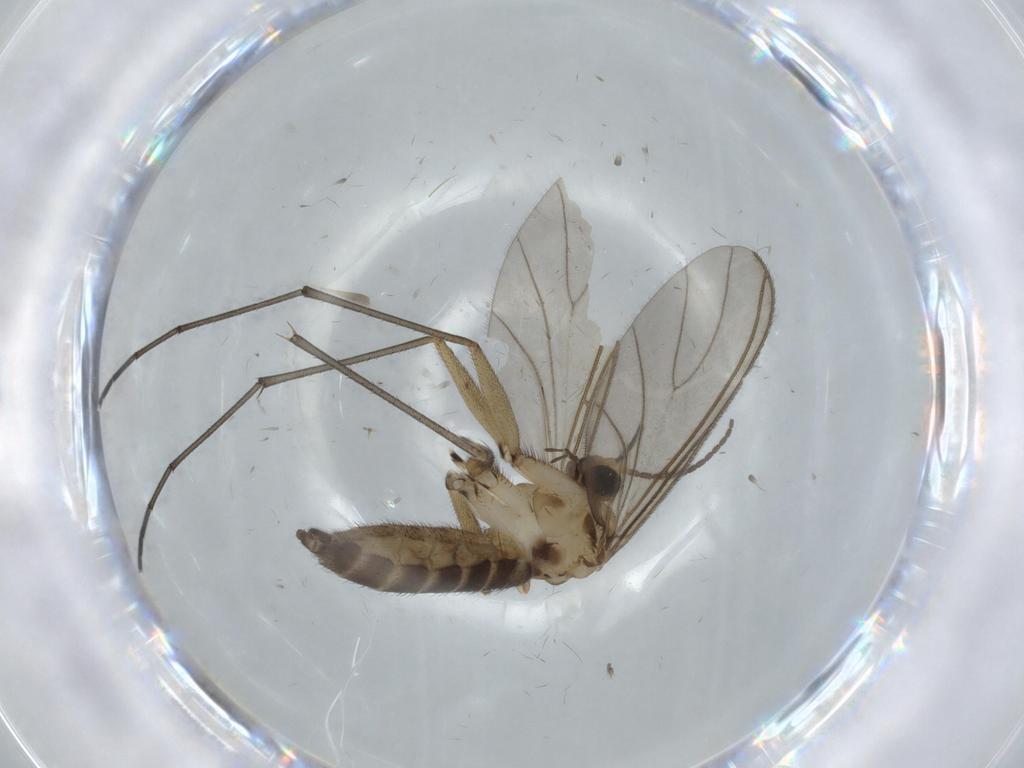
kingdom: Animalia
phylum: Arthropoda
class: Insecta
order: Diptera
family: Sciaridae
